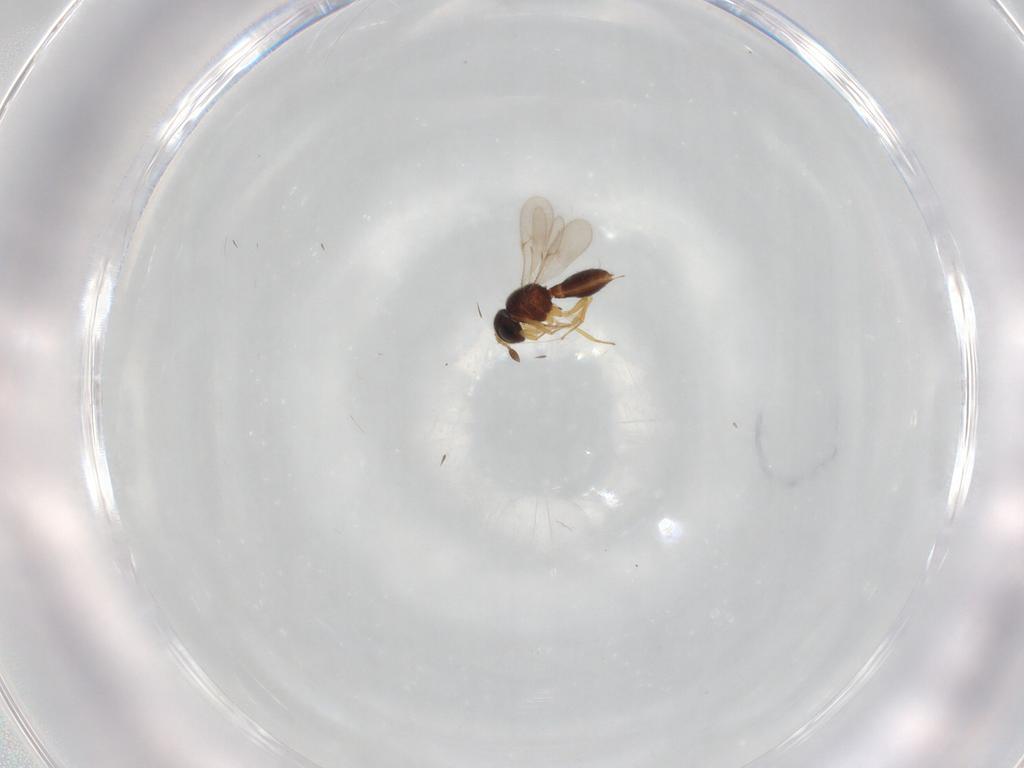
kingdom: Animalia
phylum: Arthropoda
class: Insecta
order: Hymenoptera
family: Scelionidae
